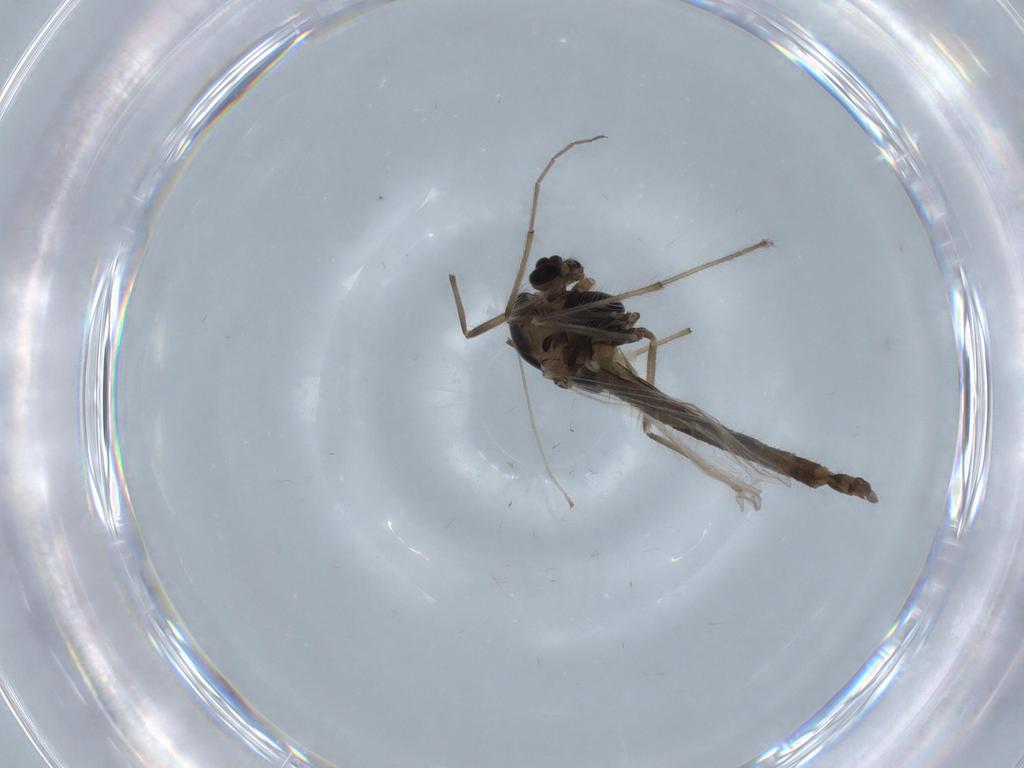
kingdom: Animalia
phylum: Arthropoda
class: Insecta
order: Diptera
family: Chironomidae
